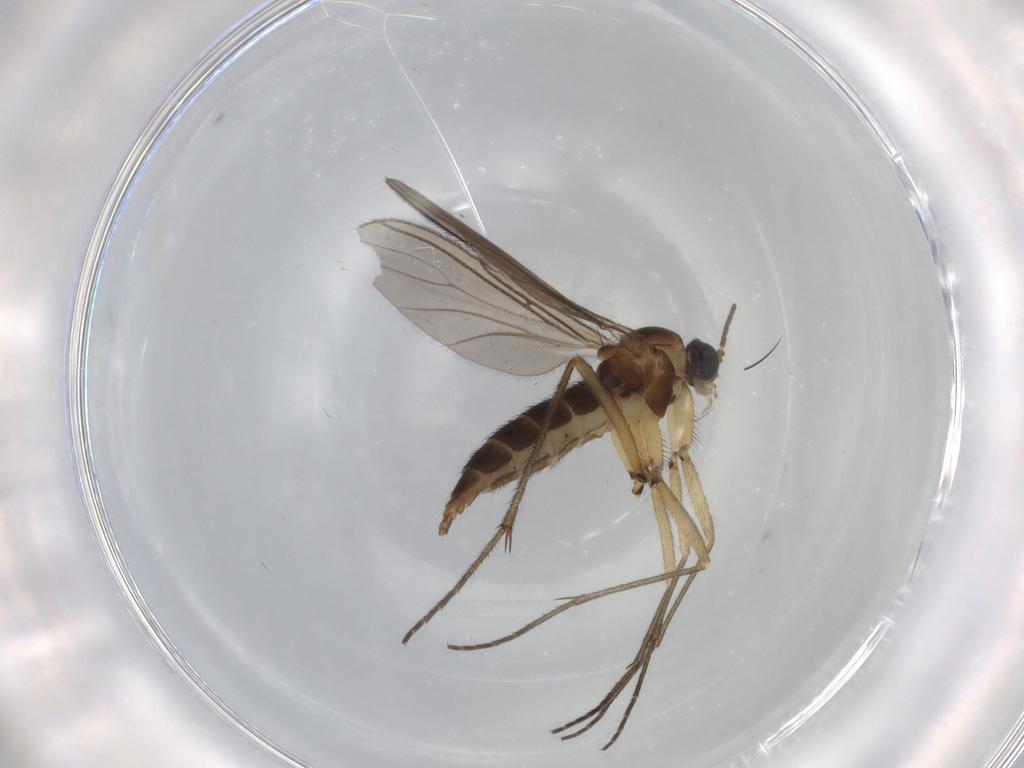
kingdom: Animalia
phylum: Arthropoda
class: Insecta
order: Diptera
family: Sciaridae
